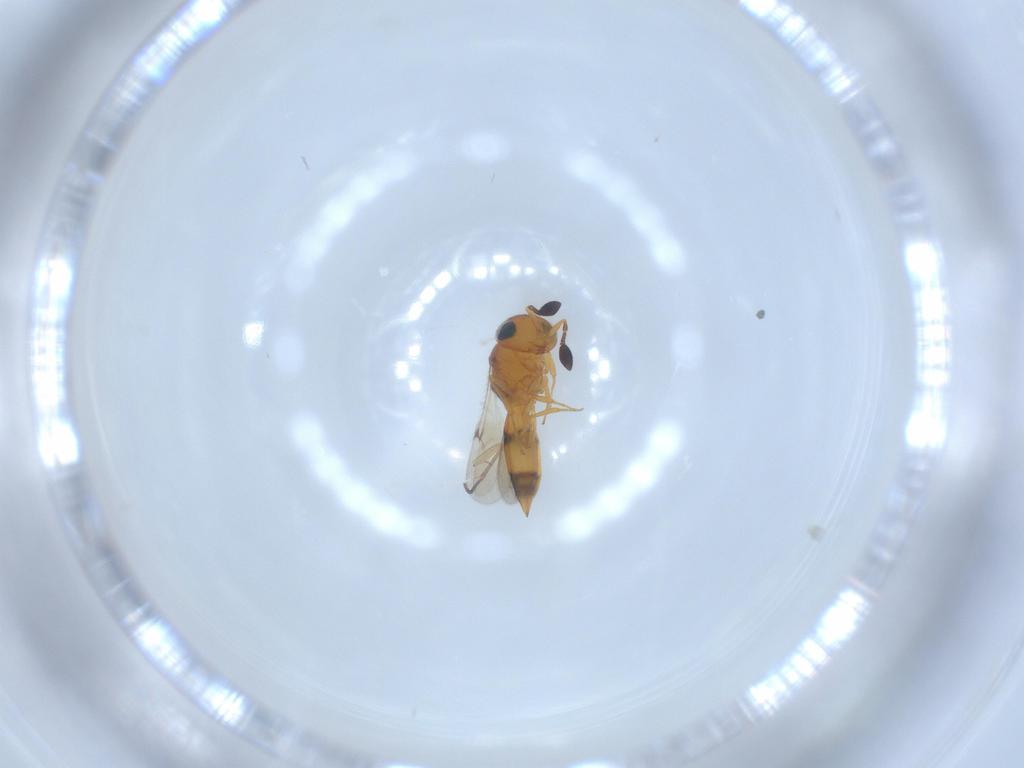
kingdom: Animalia
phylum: Arthropoda
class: Insecta
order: Hymenoptera
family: Scelionidae
